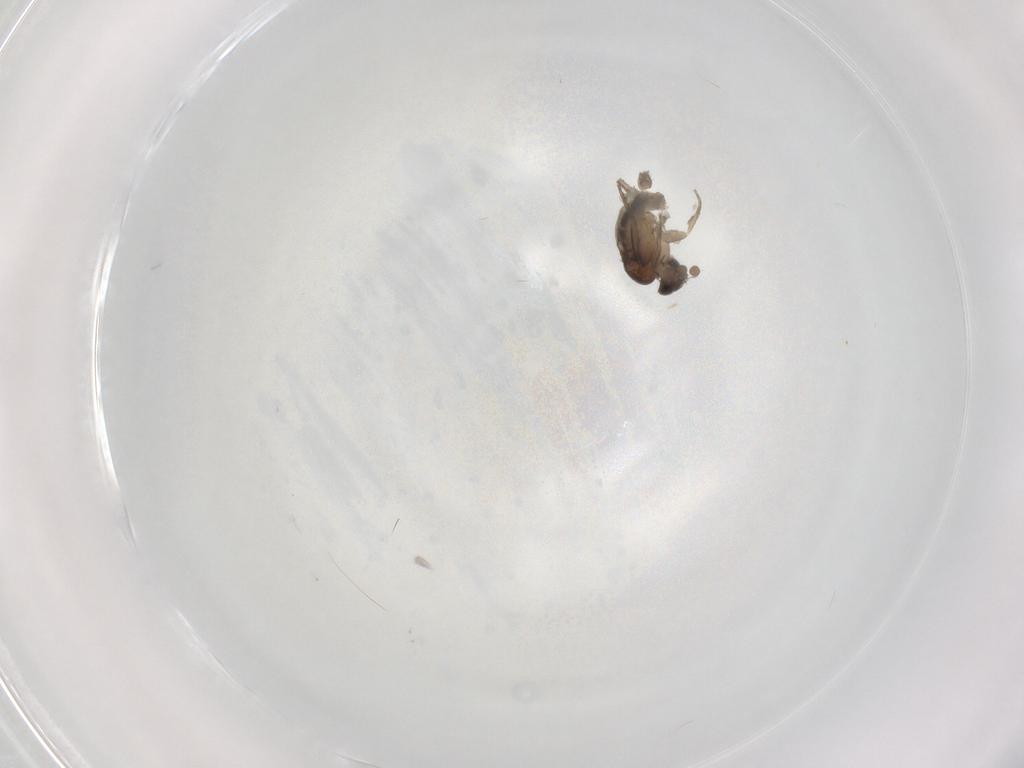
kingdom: Animalia
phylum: Arthropoda
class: Insecta
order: Diptera
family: Phoridae
